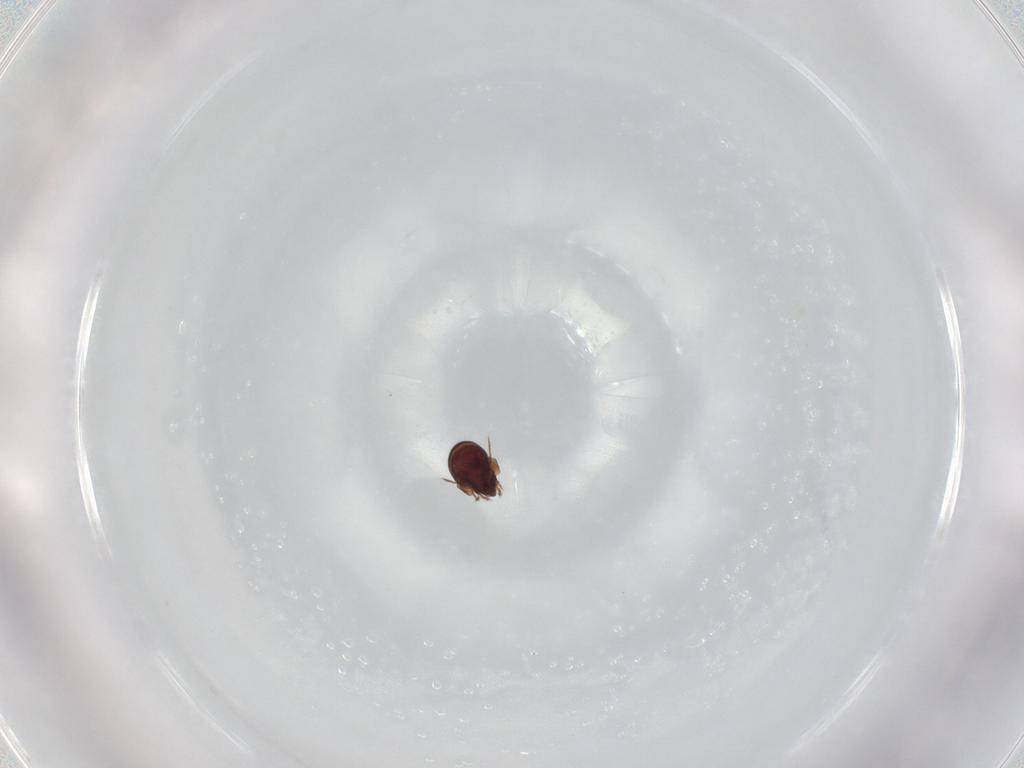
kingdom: Animalia
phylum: Arthropoda
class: Arachnida
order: Sarcoptiformes
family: Phenopelopidae
